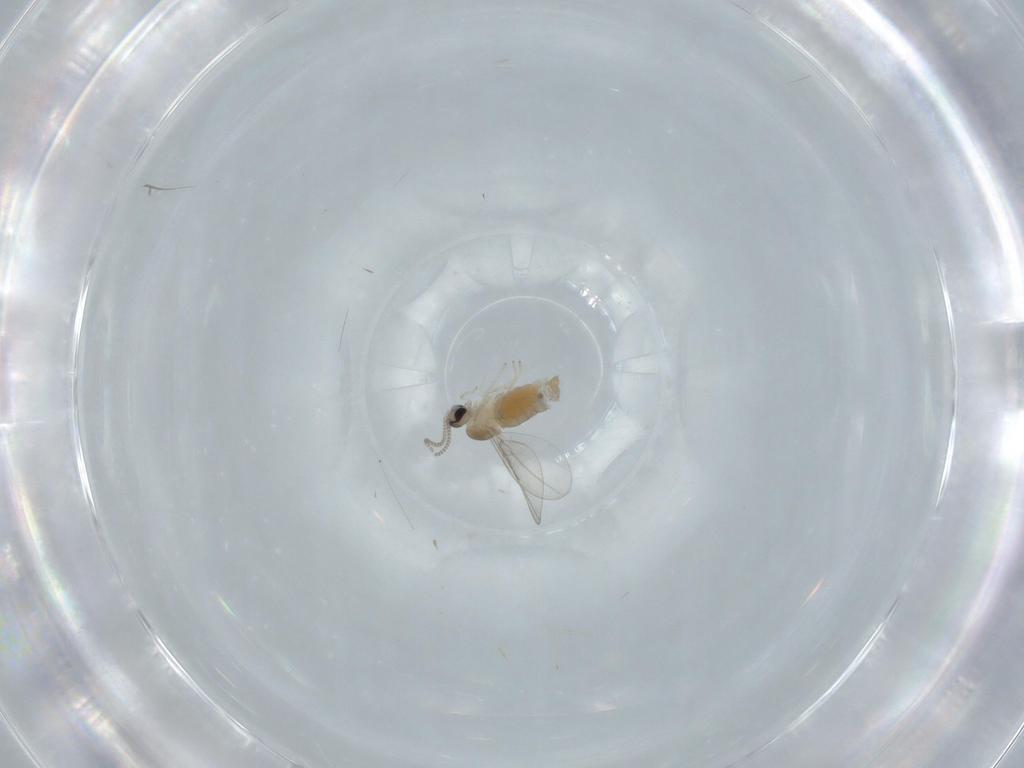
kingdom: Animalia
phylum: Arthropoda
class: Insecta
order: Diptera
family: Cecidomyiidae
